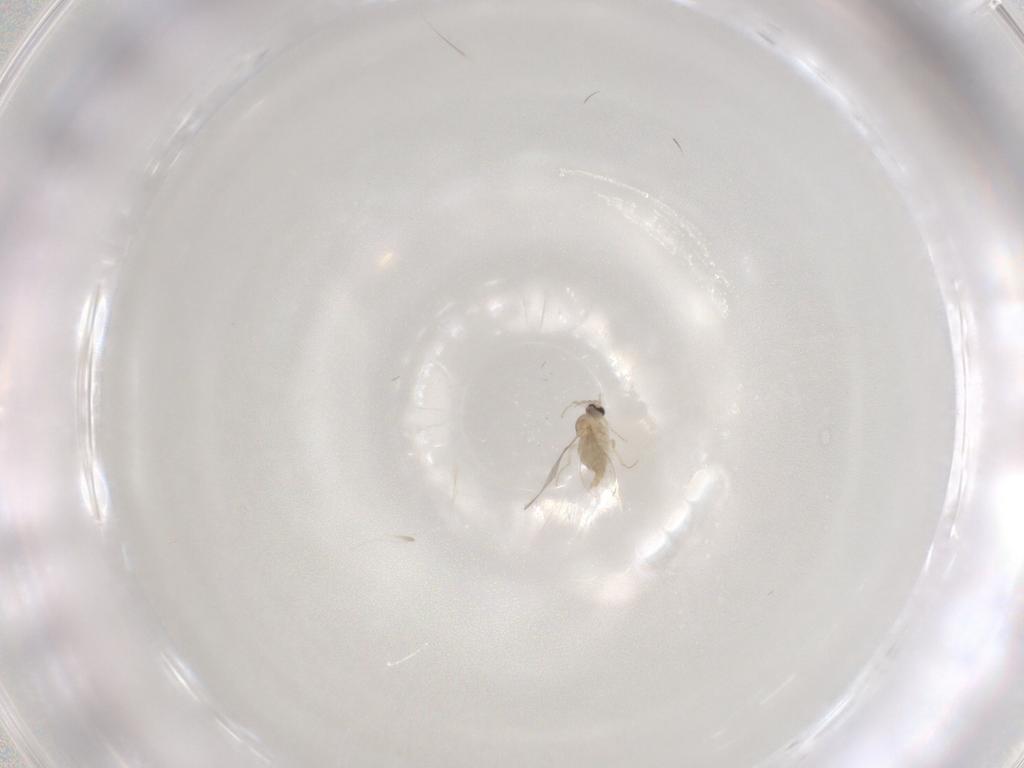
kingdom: Animalia
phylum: Arthropoda
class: Insecta
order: Diptera
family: Cecidomyiidae
